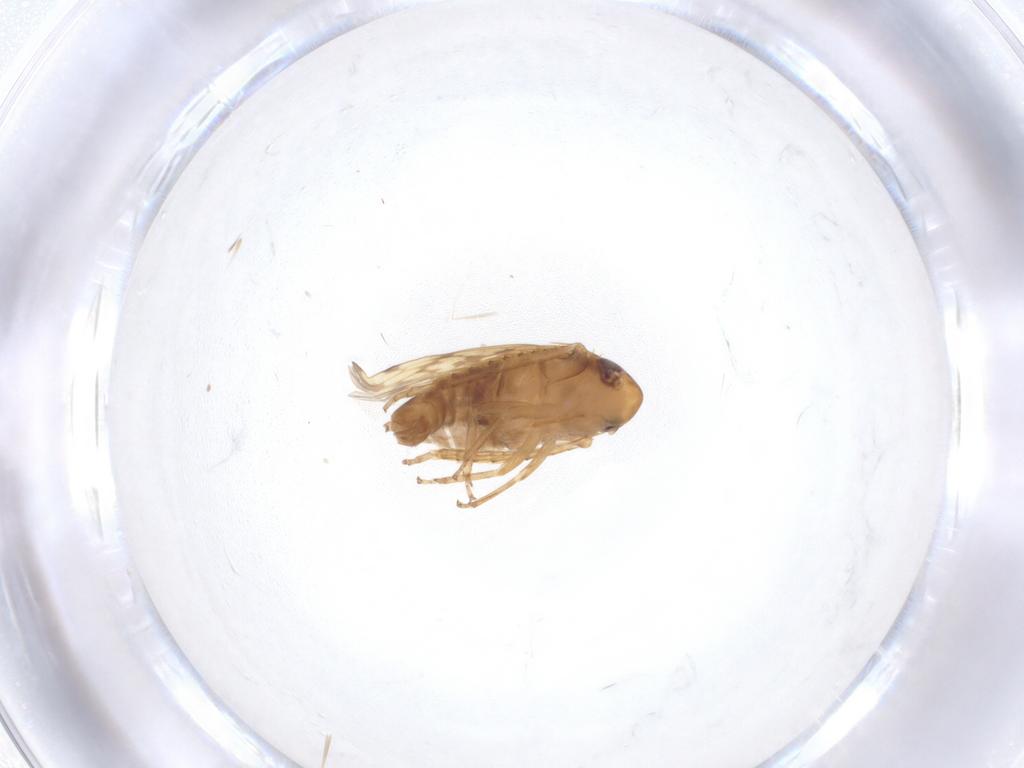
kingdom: Animalia
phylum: Arthropoda
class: Insecta
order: Hemiptera
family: Cicadellidae
